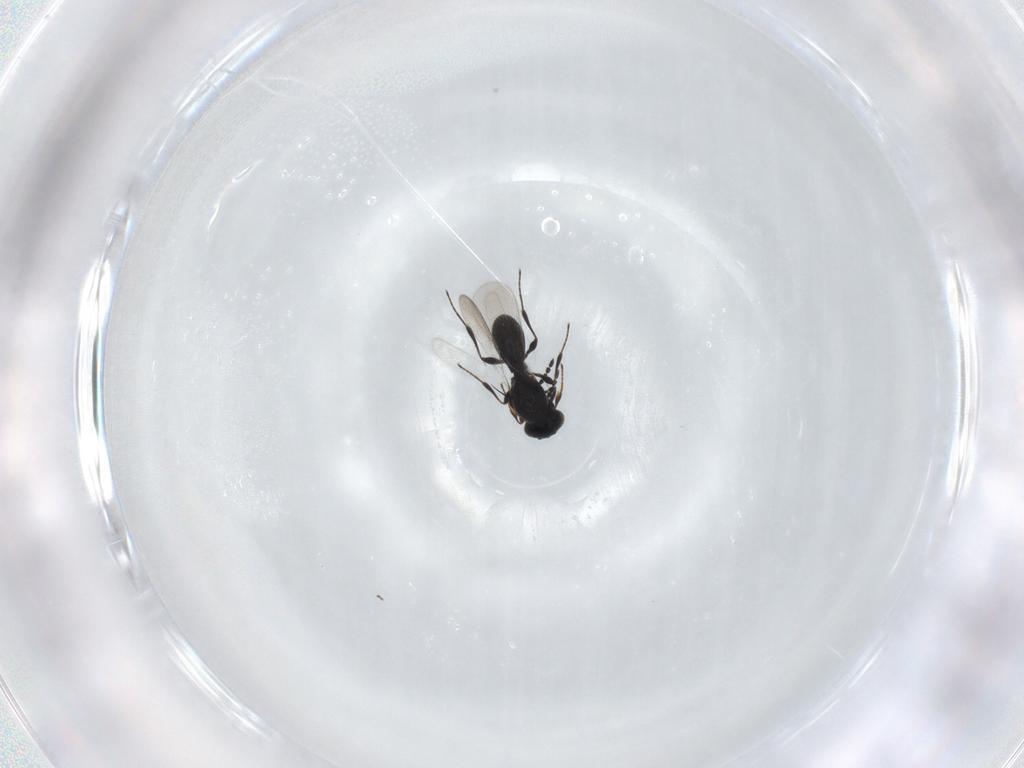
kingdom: Animalia
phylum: Arthropoda
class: Insecta
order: Hymenoptera
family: Platygastridae
